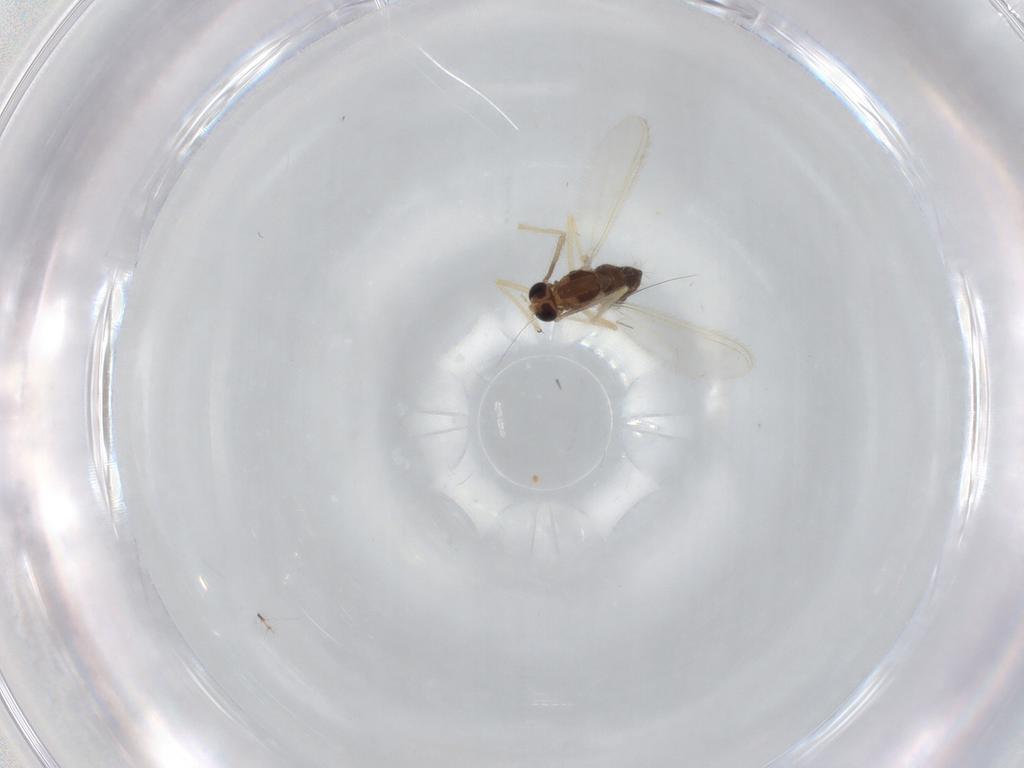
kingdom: Animalia
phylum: Arthropoda
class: Insecta
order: Diptera
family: Chironomidae
